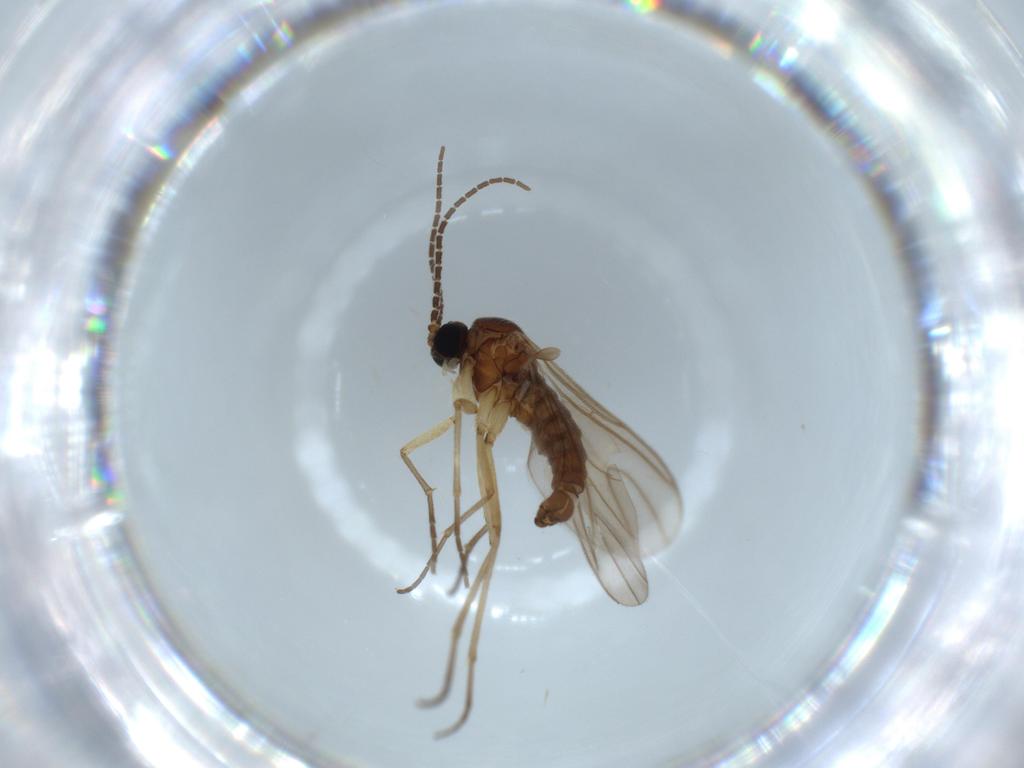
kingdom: Animalia
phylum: Arthropoda
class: Insecta
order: Diptera
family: Sciaridae
